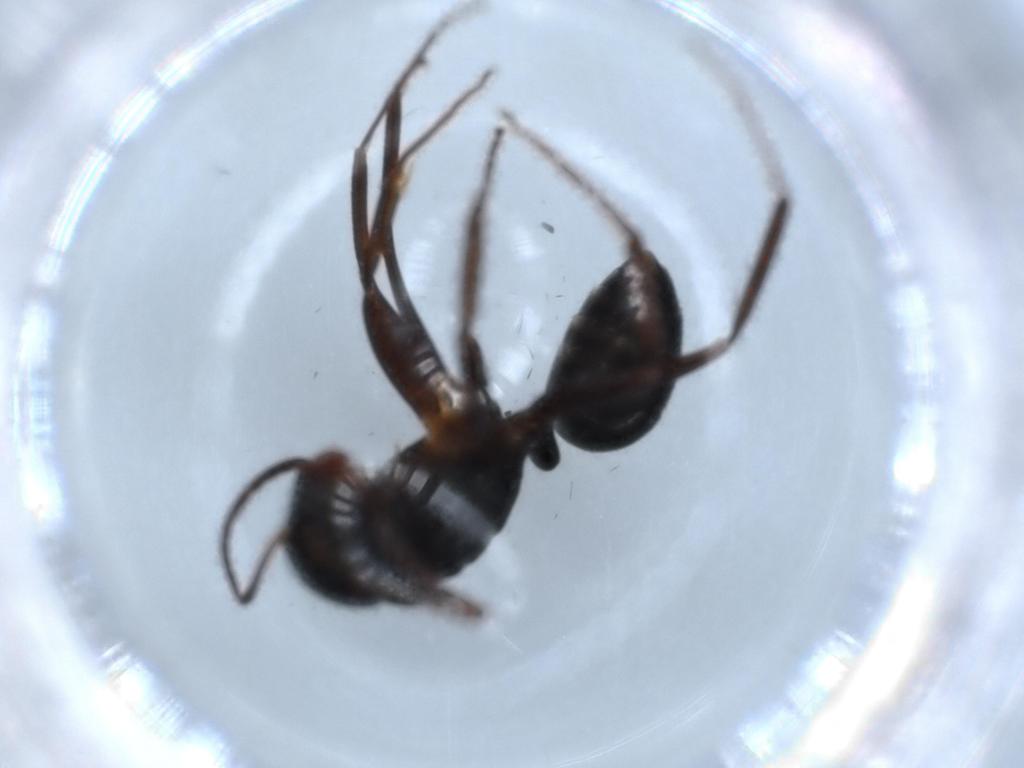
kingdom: Animalia
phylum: Arthropoda
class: Insecta
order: Hymenoptera
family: Formicidae
